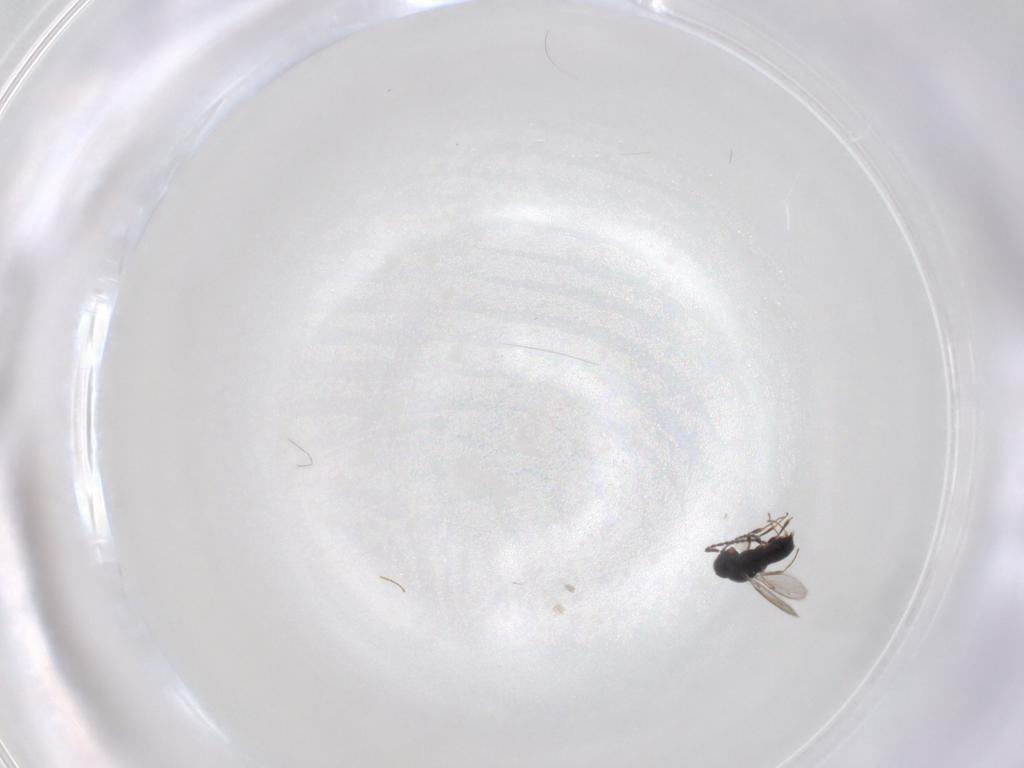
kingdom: Animalia
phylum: Arthropoda
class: Insecta
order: Hymenoptera
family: Scelionidae
